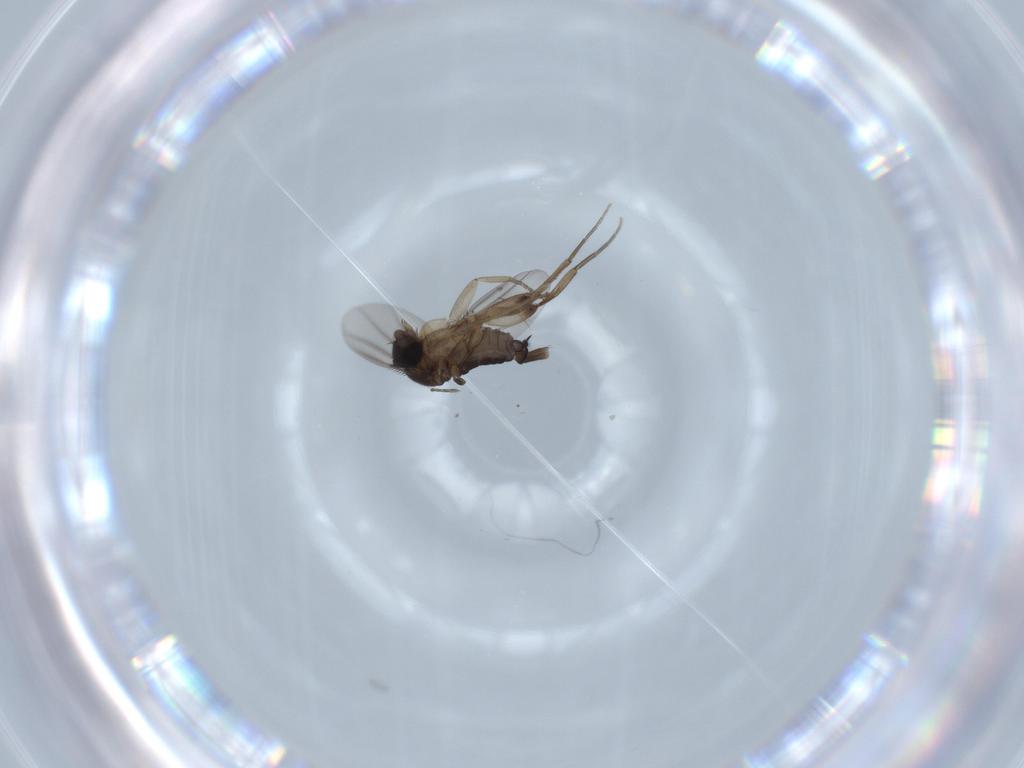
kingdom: Animalia
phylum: Arthropoda
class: Insecta
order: Diptera
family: Phoridae
